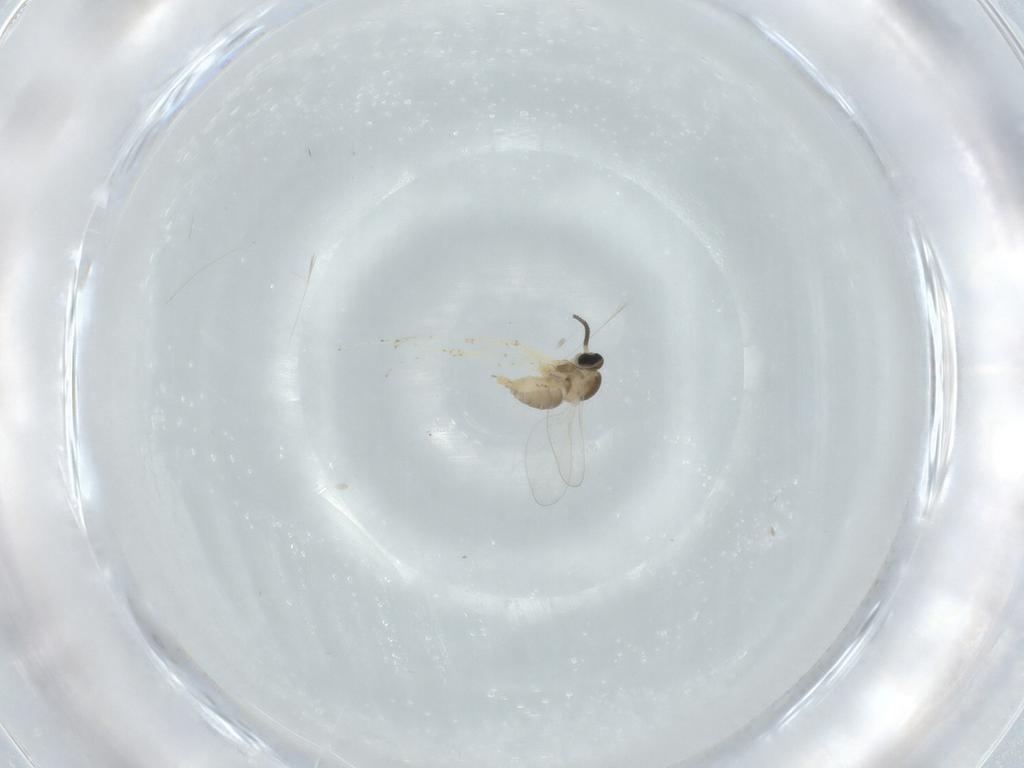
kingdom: Animalia
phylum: Arthropoda
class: Insecta
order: Diptera
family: Cecidomyiidae
